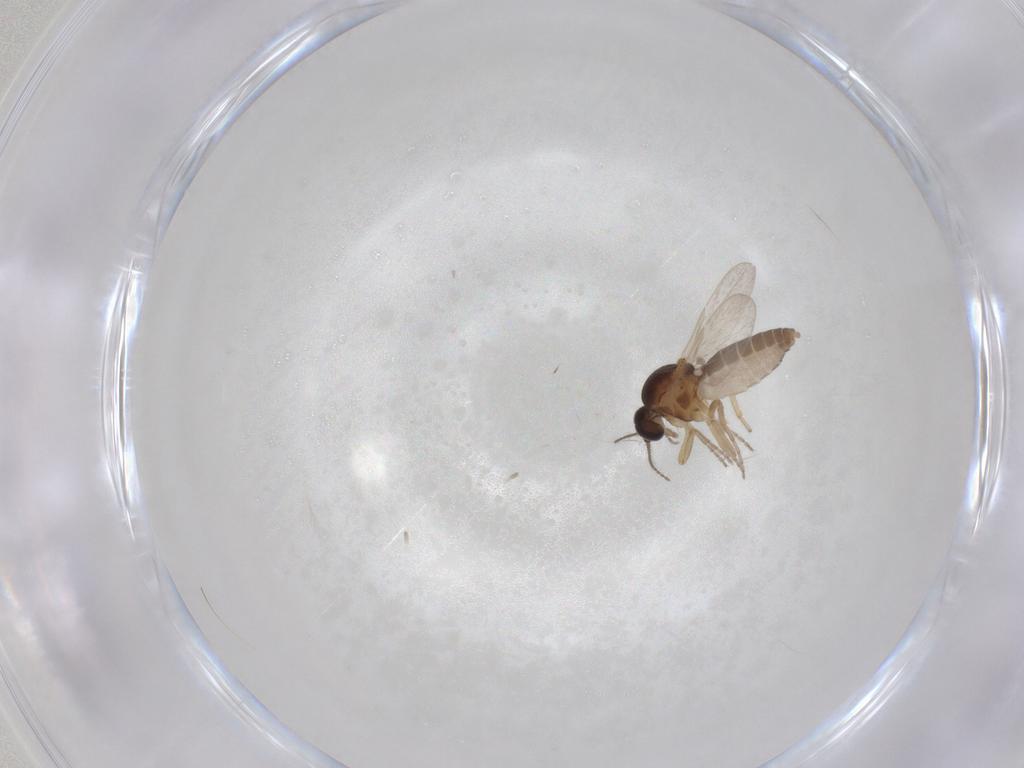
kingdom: Animalia
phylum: Arthropoda
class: Insecta
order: Diptera
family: Ceratopogonidae
